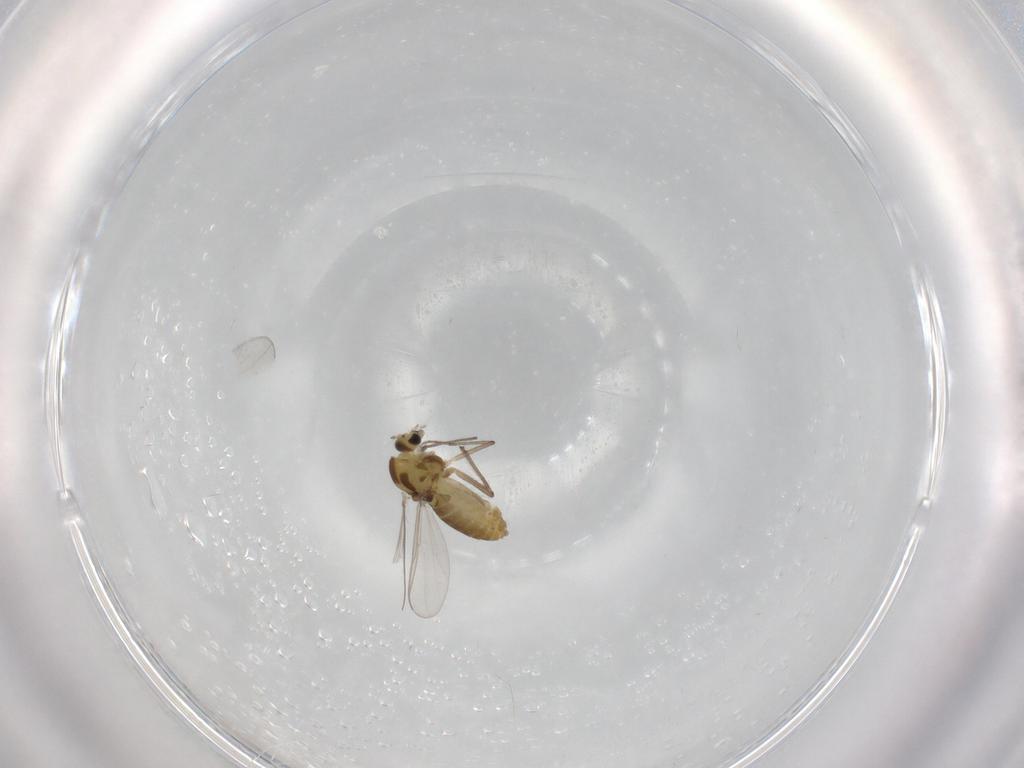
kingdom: Animalia
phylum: Arthropoda
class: Insecta
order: Diptera
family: Chironomidae
